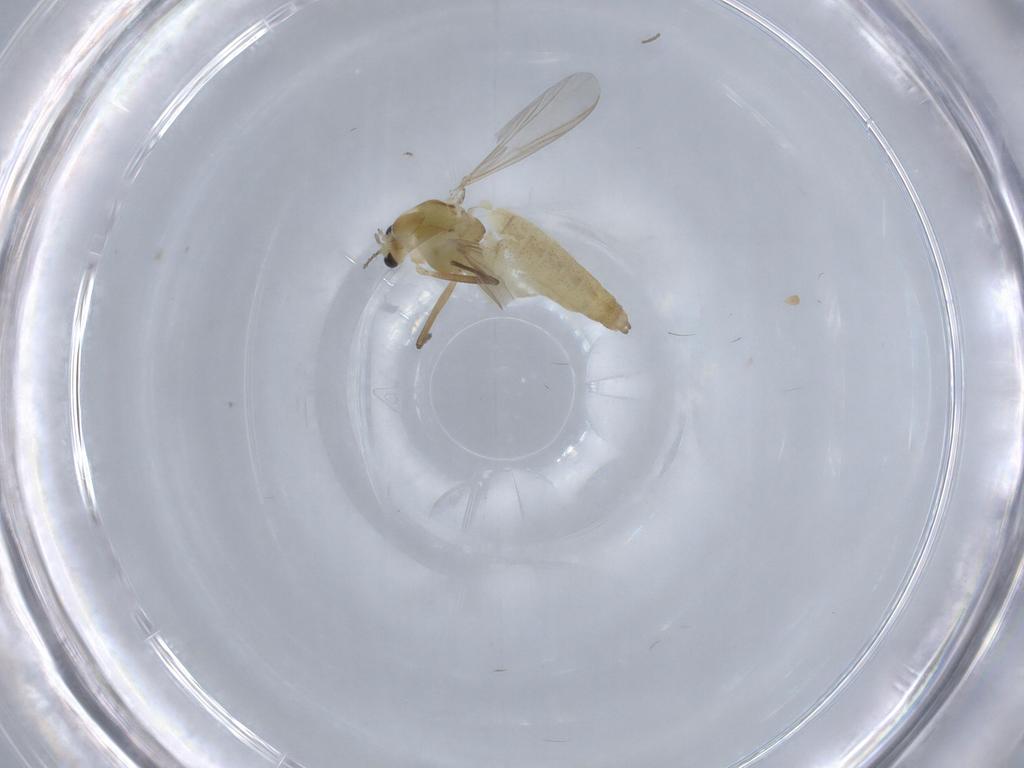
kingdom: Animalia
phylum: Arthropoda
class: Insecta
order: Diptera
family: Chironomidae
